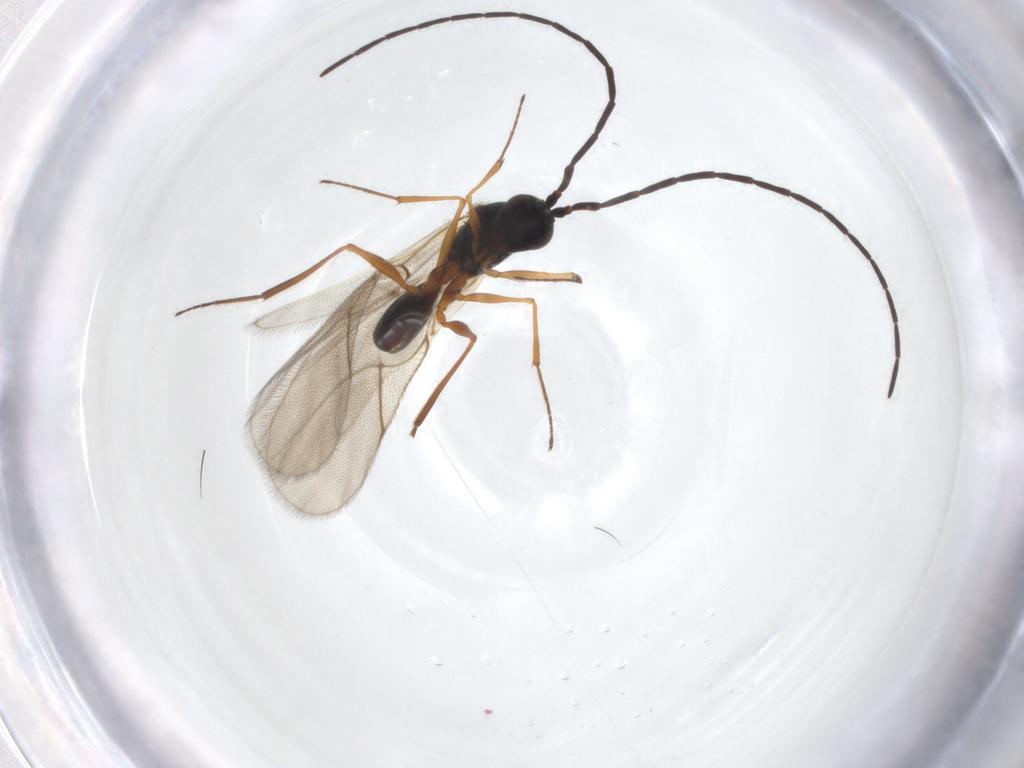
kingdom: Animalia
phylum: Arthropoda
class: Insecta
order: Hymenoptera
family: Figitidae
